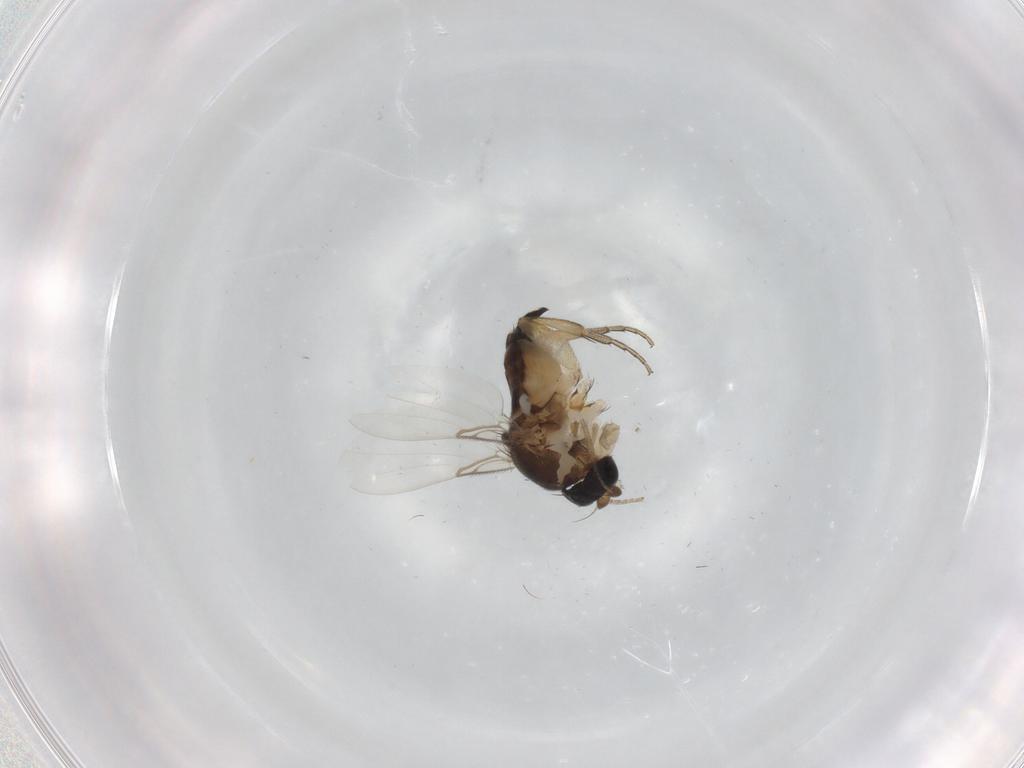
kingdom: Animalia
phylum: Arthropoda
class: Insecta
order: Diptera
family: Phoridae
